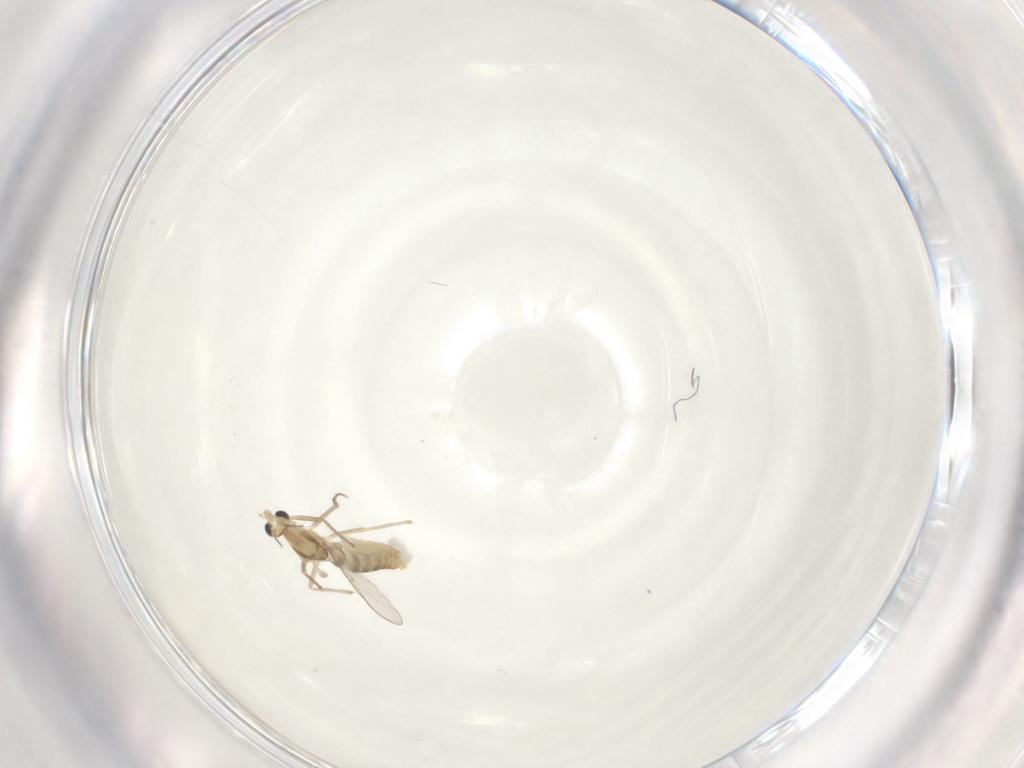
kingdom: Animalia
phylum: Arthropoda
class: Insecta
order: Diptera
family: Chironomidae
